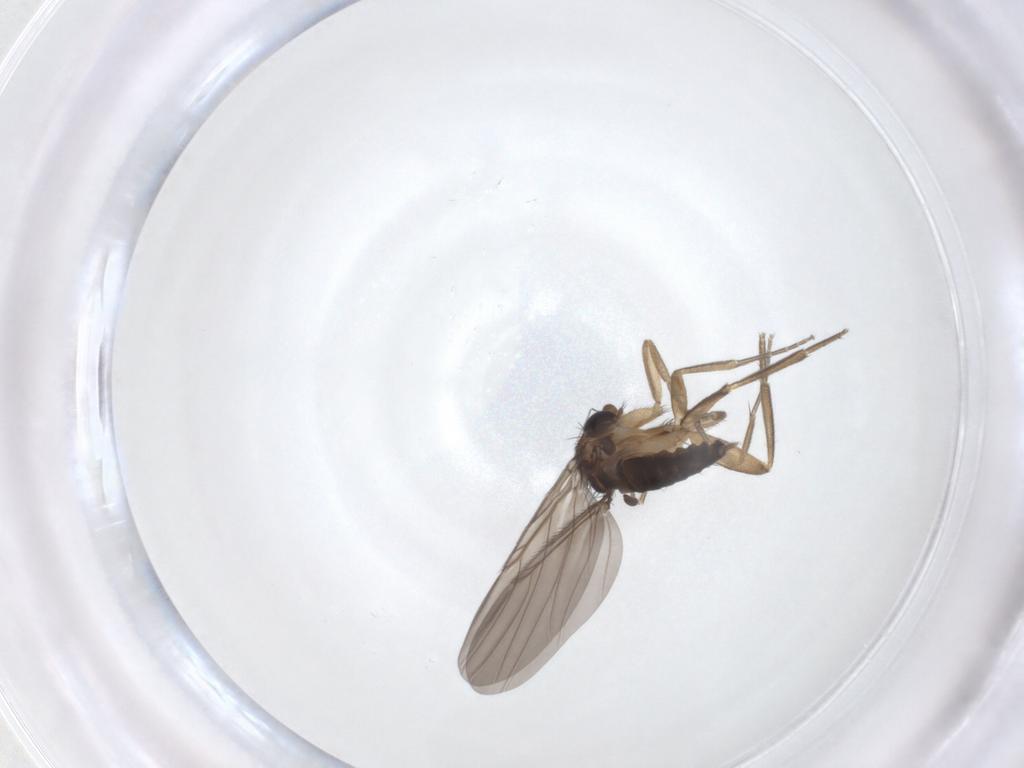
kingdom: Animalia
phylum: Arthropoda
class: Insecta
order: Diptera
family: Phoridae
